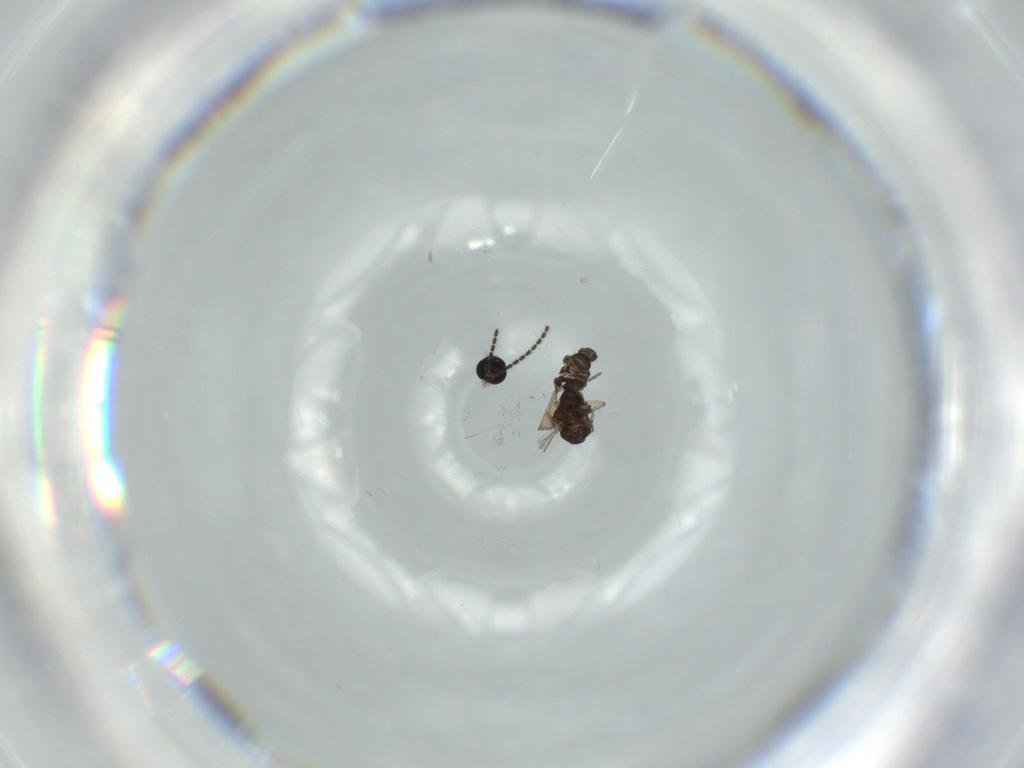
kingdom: Animalia
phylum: Arthropoda
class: Insecta
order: Diptera
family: Sciaridae
